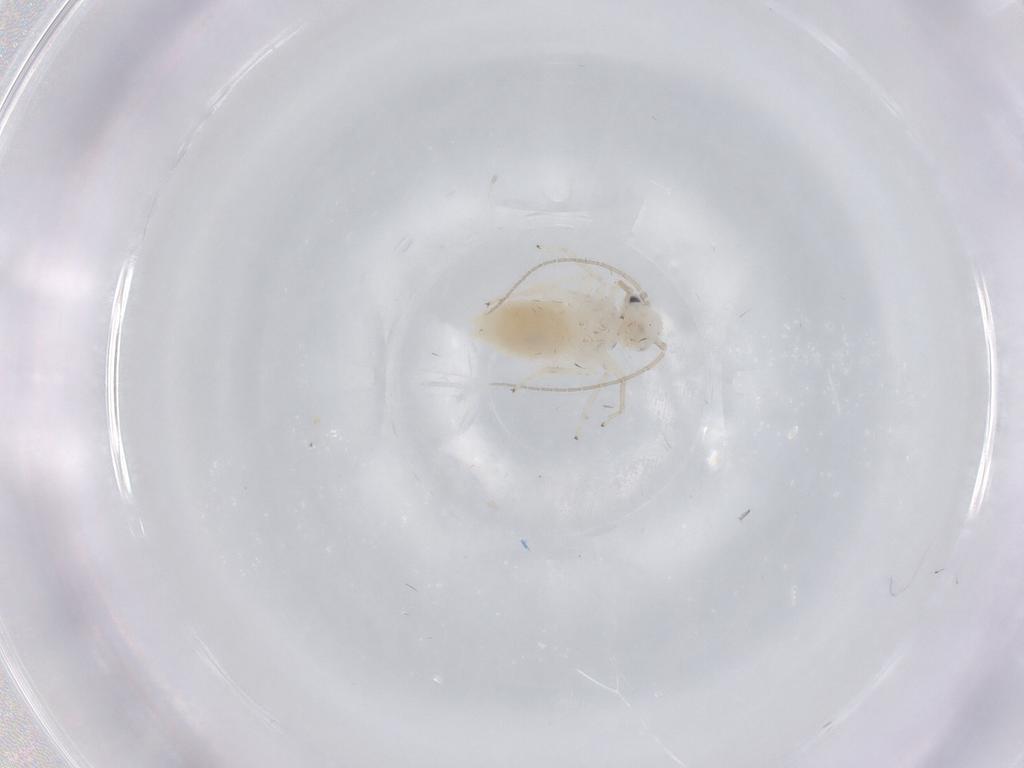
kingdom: Animalia
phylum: Arthropoda
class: Insecta
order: Psocodea
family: Caeciliusidae
